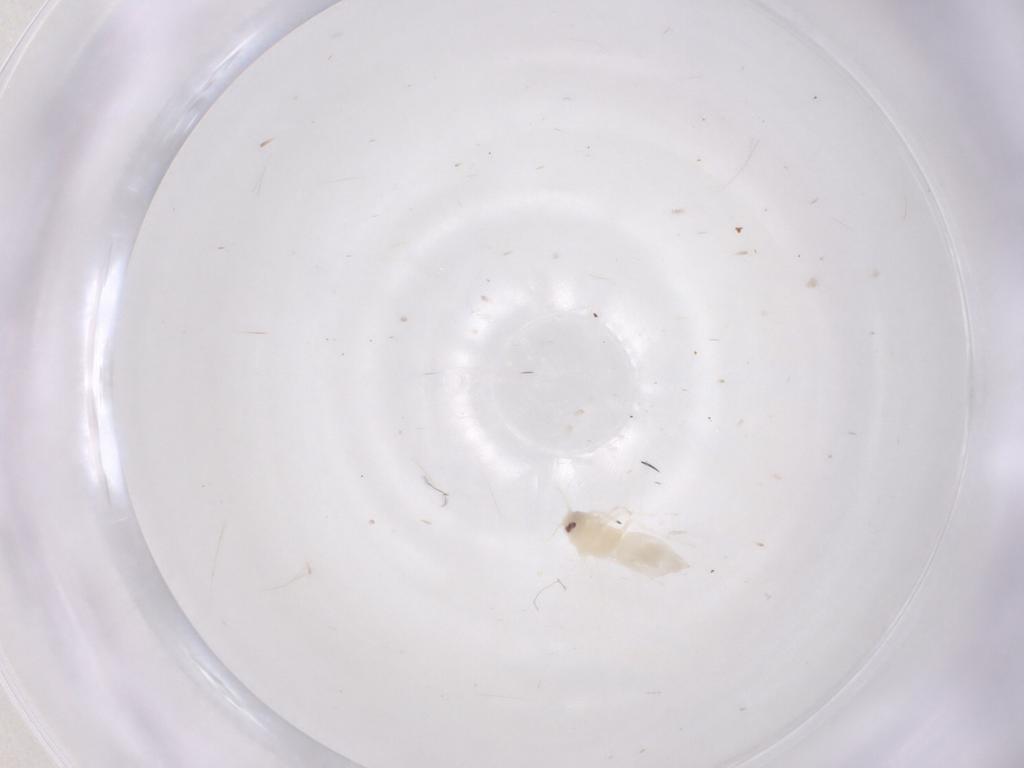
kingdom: Animalia
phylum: Arthropoda
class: Insecta
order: Hemiptera
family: Aleyrodidae
